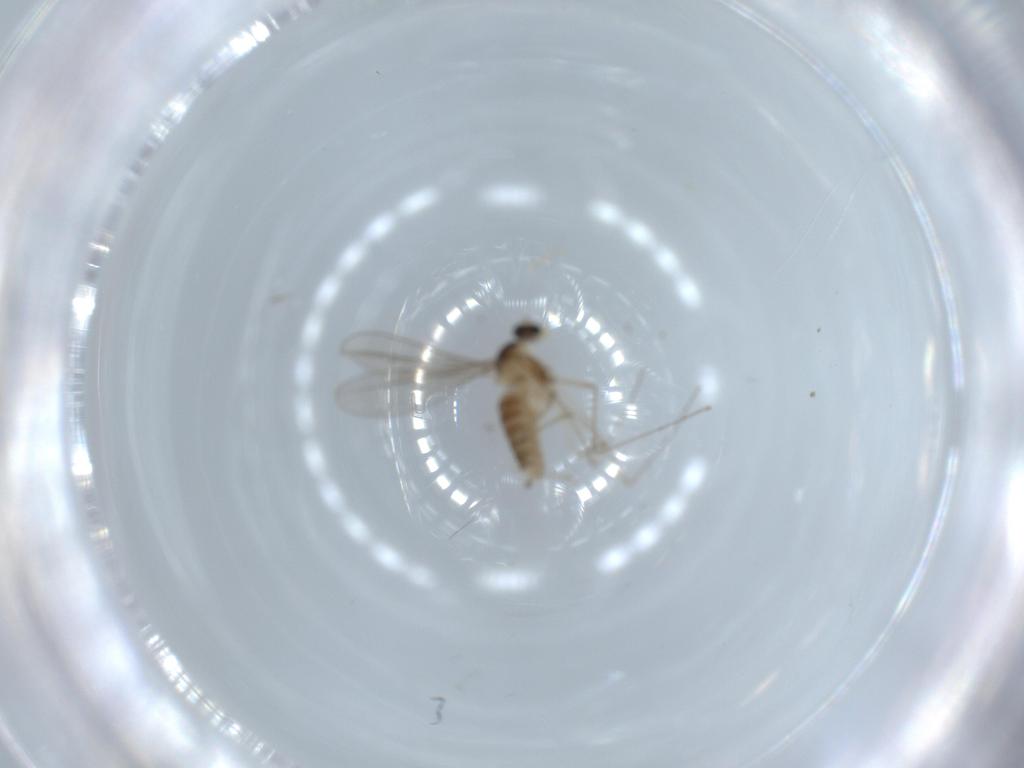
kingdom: Animalia
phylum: Arthropoda
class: Insecta
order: Diptera
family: Cecidomyiidae
